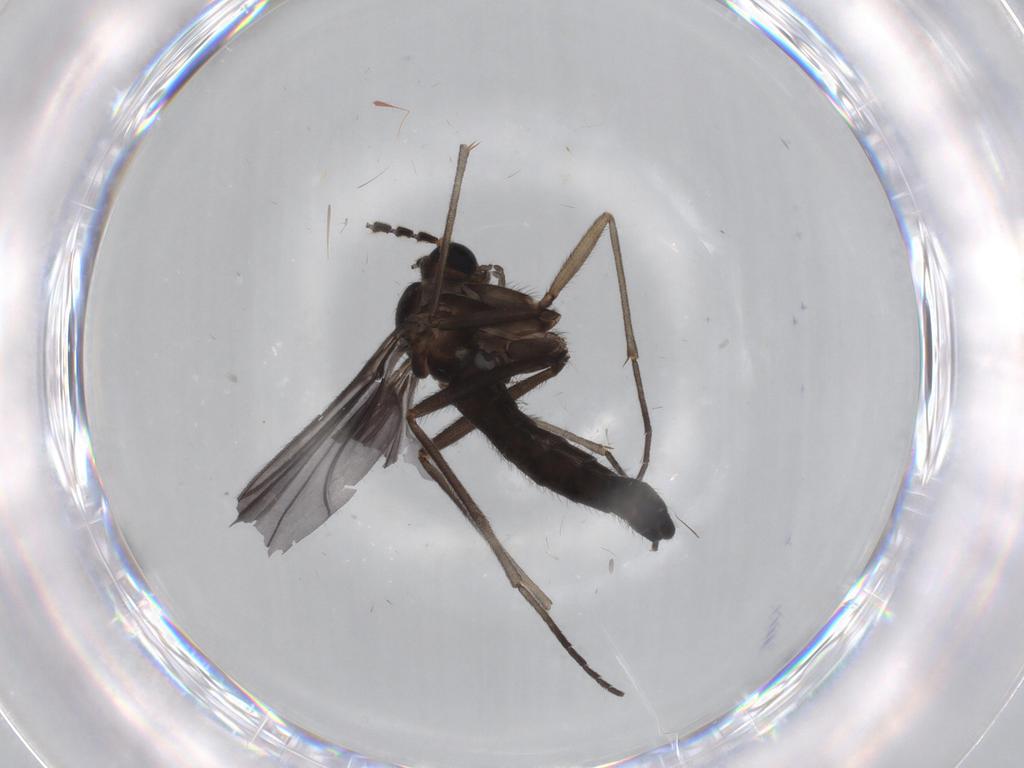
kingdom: Animalia
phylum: Arthropoda
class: Insecta
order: Diptera
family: Sciaridae
